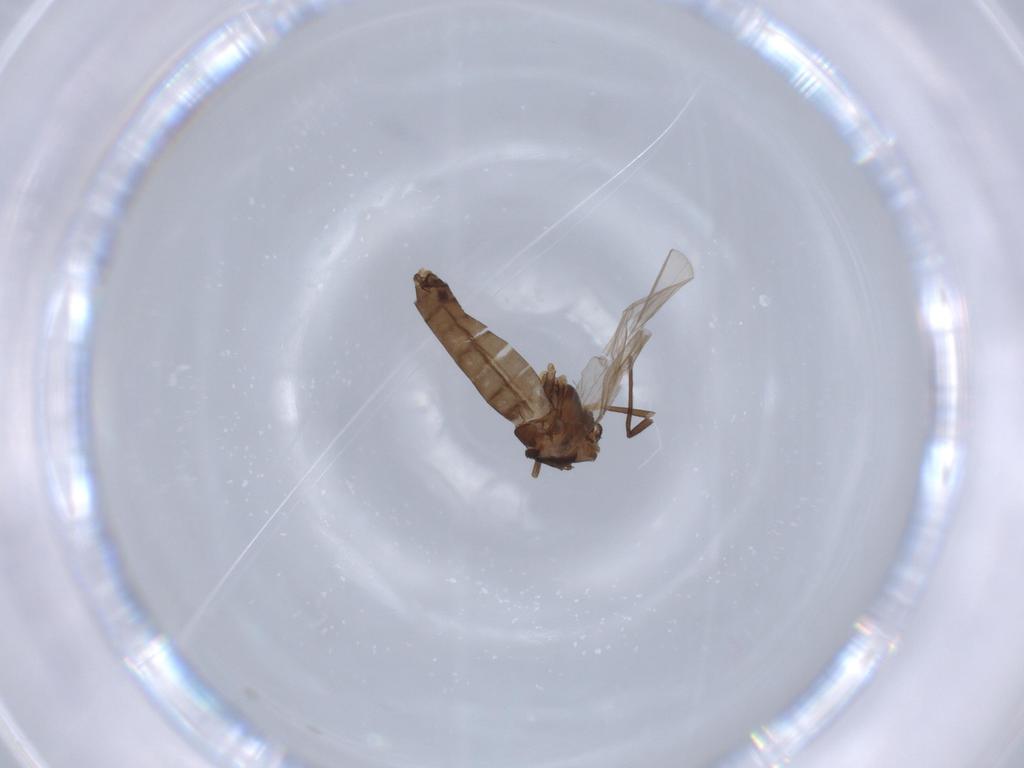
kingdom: Animalia
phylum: Arthropoda
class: Insecta
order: Diptera
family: Chironomidae
